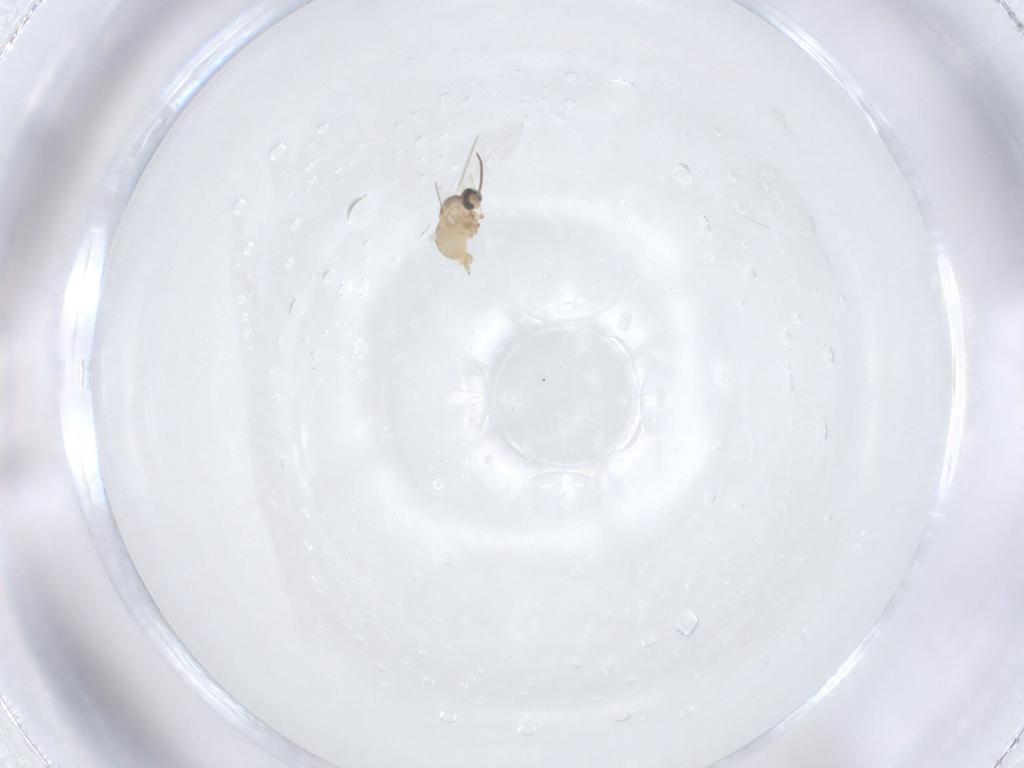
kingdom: Animalia
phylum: Arthropoda
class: Insecta
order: Diptera
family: Cecidomyiidae
